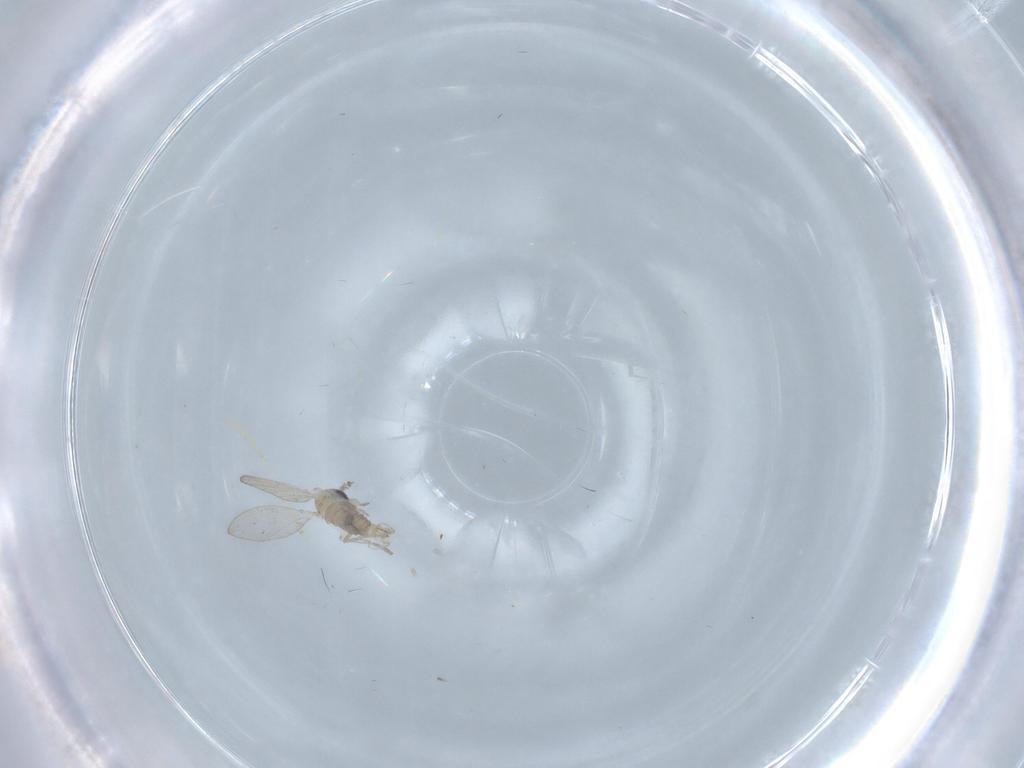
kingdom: Animalia
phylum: Arthropoda
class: Insecta
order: Diptera
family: Psychodidae
